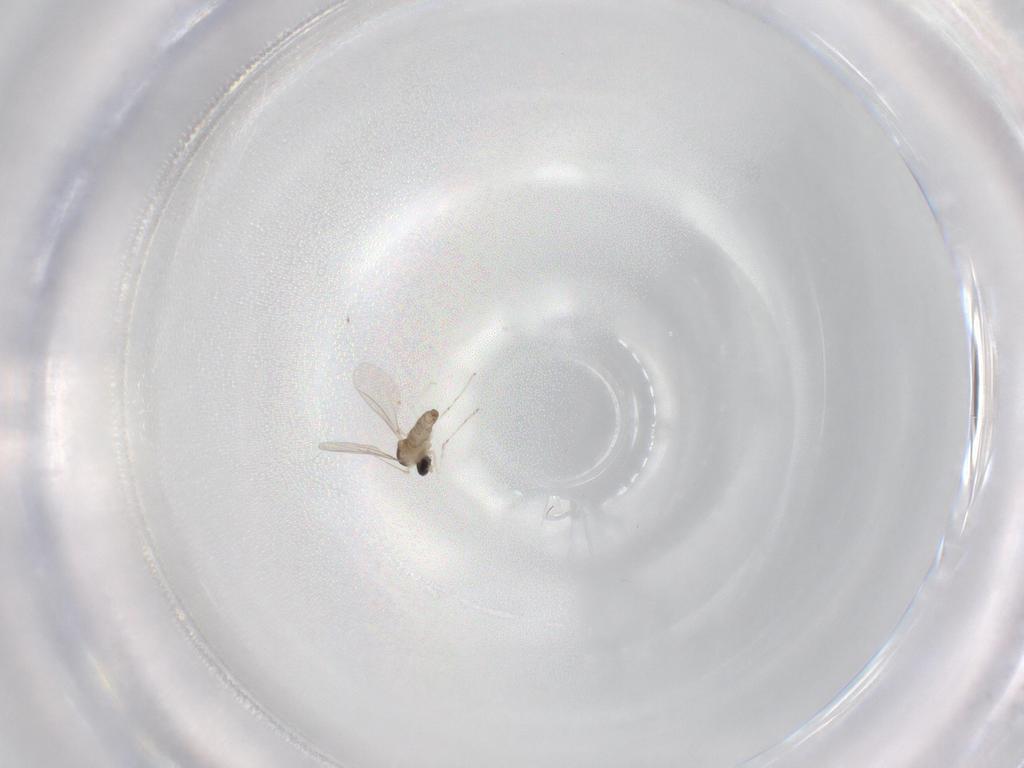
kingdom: Animalia
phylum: Arthropoda
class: Insecta
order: Diptera
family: Cecidomyiidae
